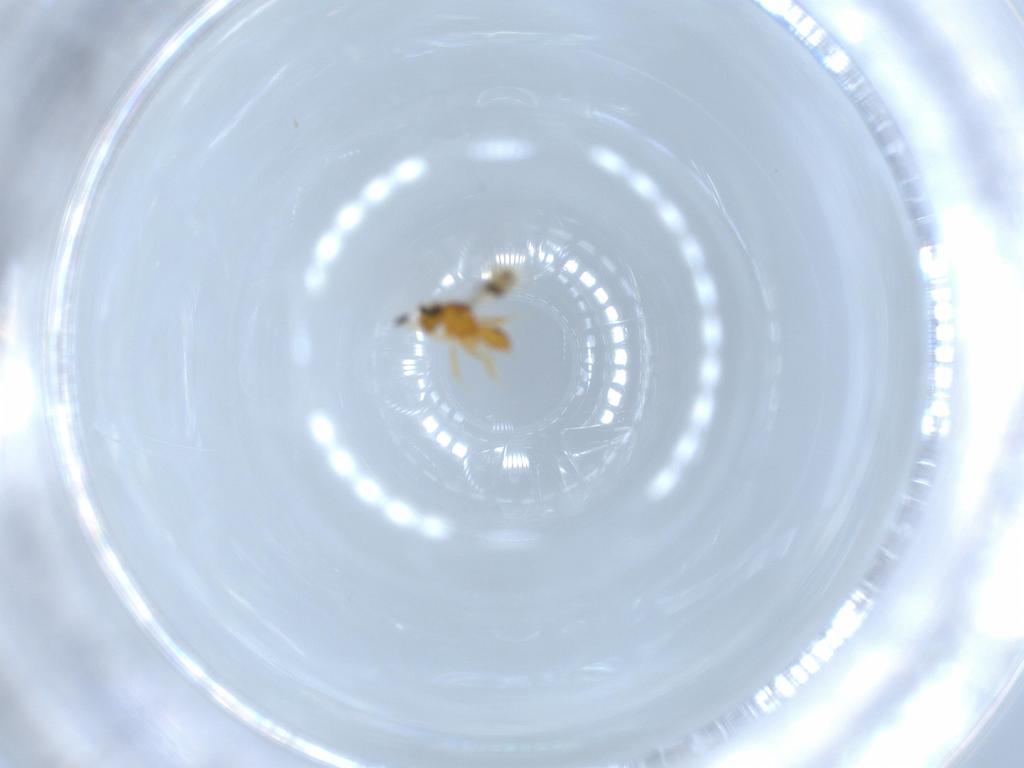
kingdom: Animalia
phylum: Arthropoda
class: Insecta
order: Hymenoptera
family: Scelionidae
